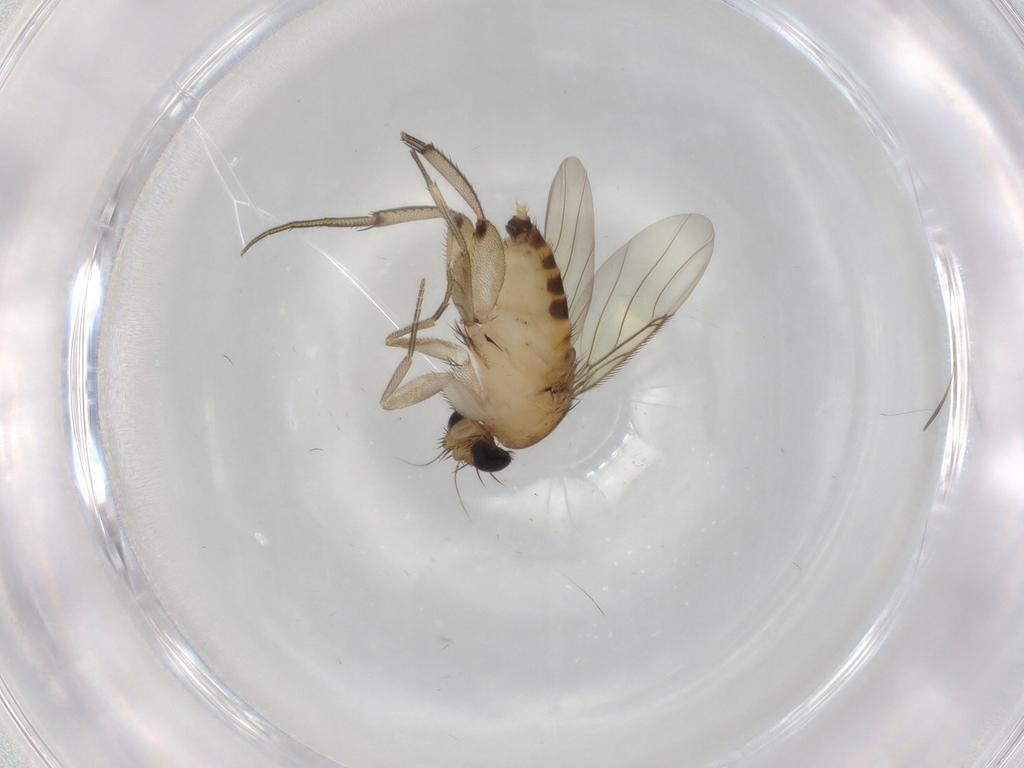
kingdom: Animalia
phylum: Arthropoda
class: Insecta
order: Diptera
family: Phoridae
